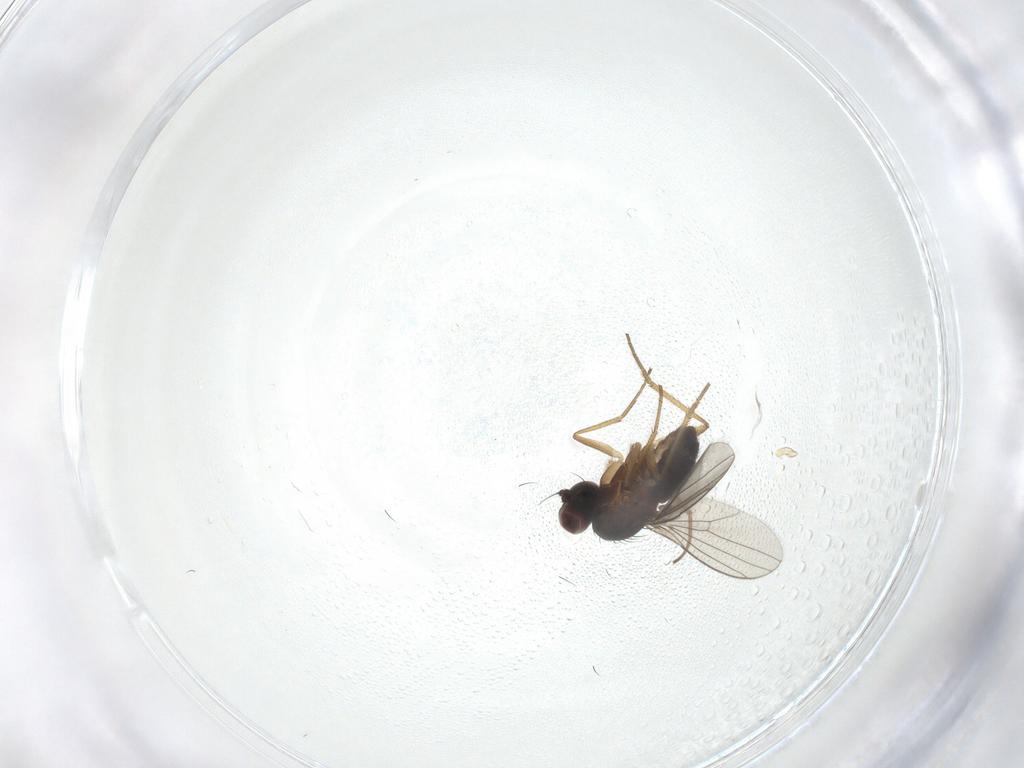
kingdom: Animalia
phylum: Arthropoda
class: Insecta
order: Diptera
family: Dolichopodidae
